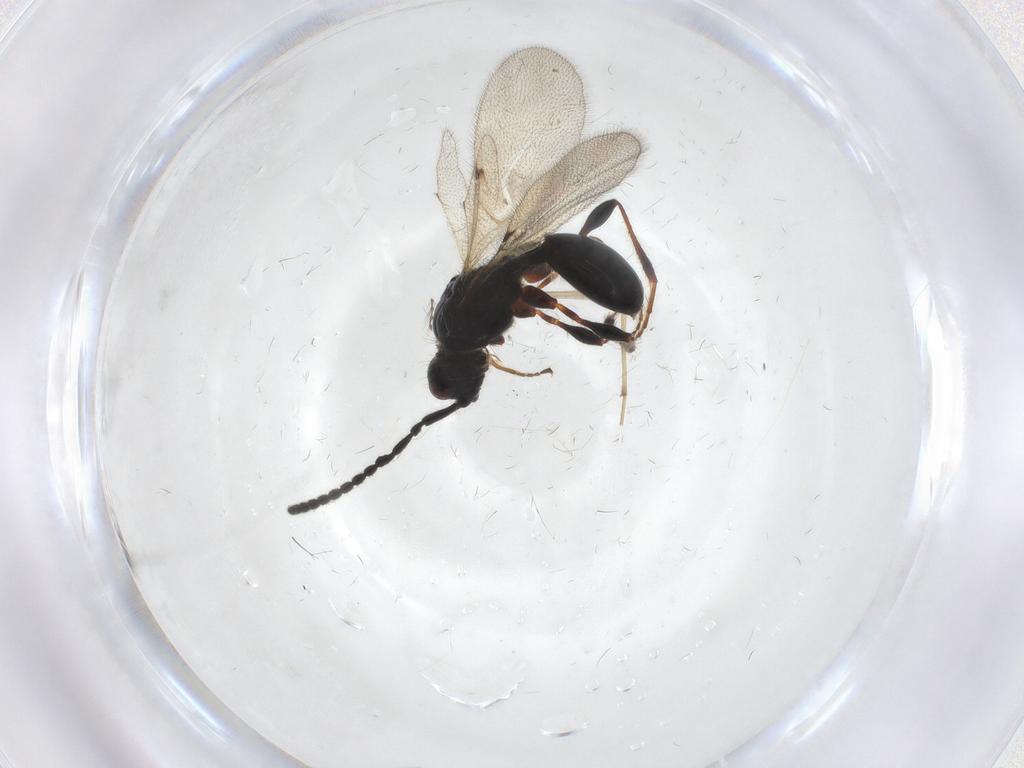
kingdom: Animalia
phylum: Arthropoda
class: Insecta
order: Hymenoptera
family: Diapriidae
